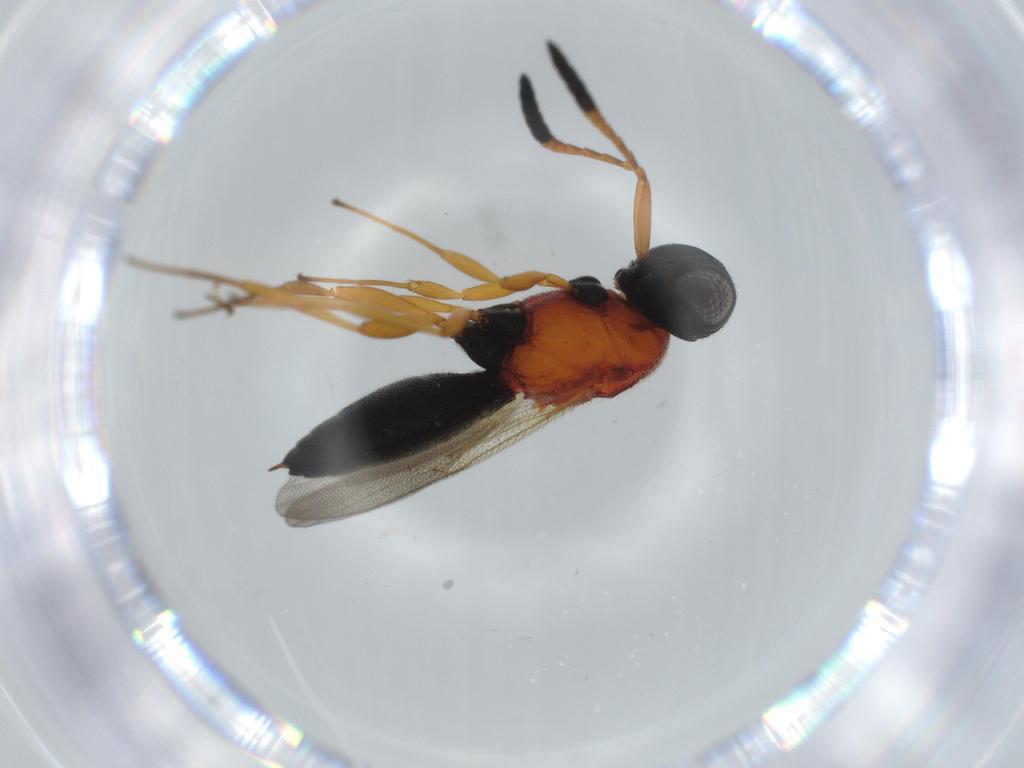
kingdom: Animalia
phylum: Arthropoda
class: Insecta
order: Hymenoptera
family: Scelionidae
